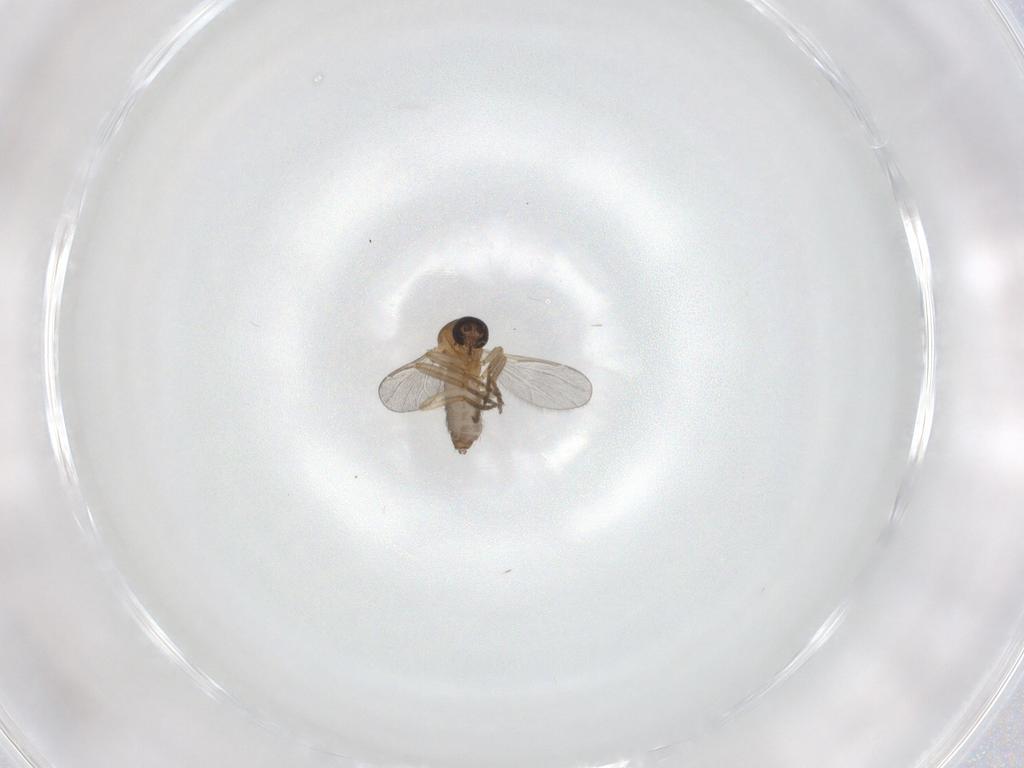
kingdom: Animalia
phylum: Arthropoda
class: Insecta
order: Diptera
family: Ceratopogonidae
